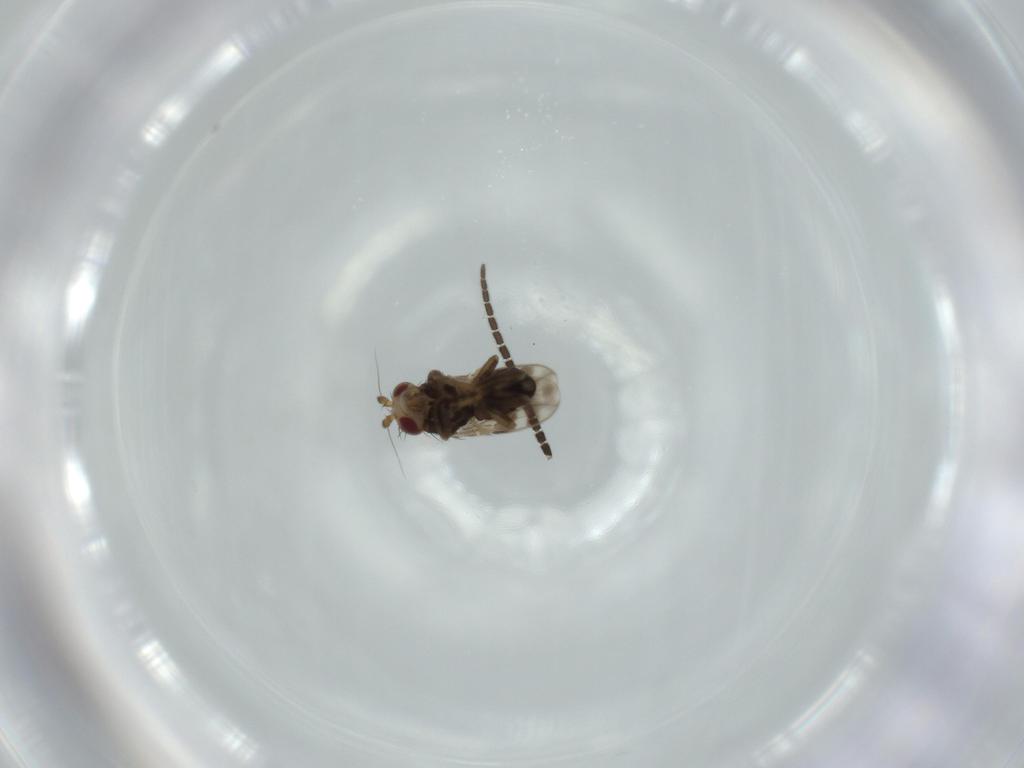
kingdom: Animalia
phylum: Arthropoda
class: Insecta
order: Diptera
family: Sciaridae
